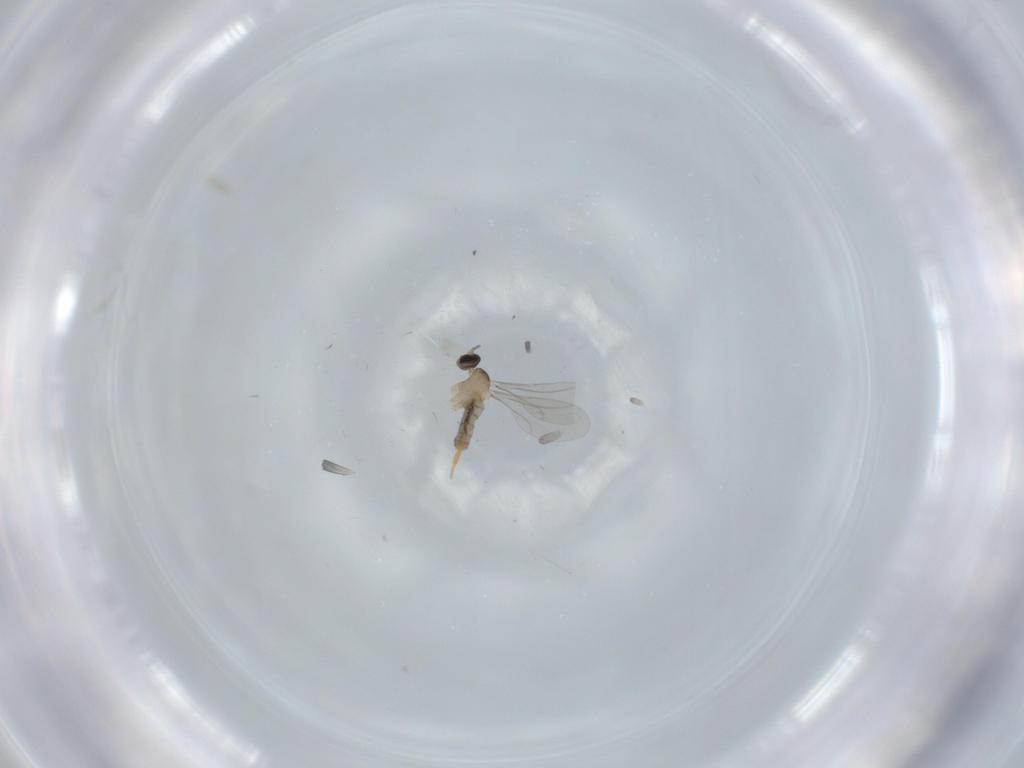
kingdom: Animalia
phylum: Arthropoda
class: Insecta
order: Diptera
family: Bibionidae
